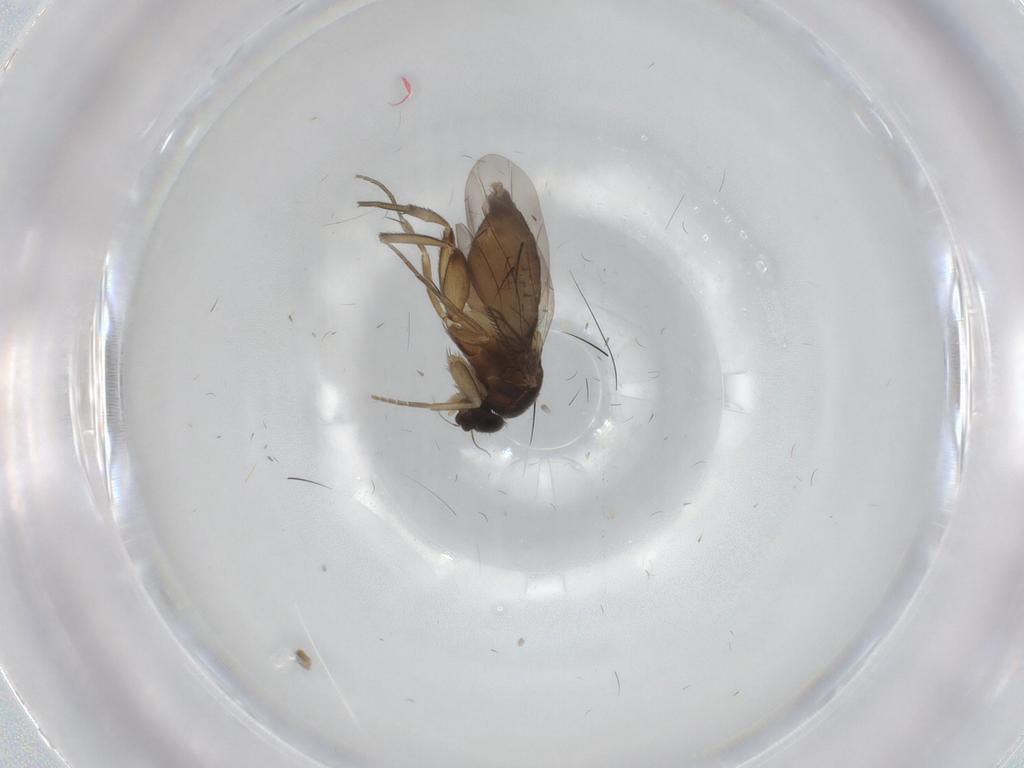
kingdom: Animalia
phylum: Arthropoda
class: Insecta
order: Diptera
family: Phoridae
